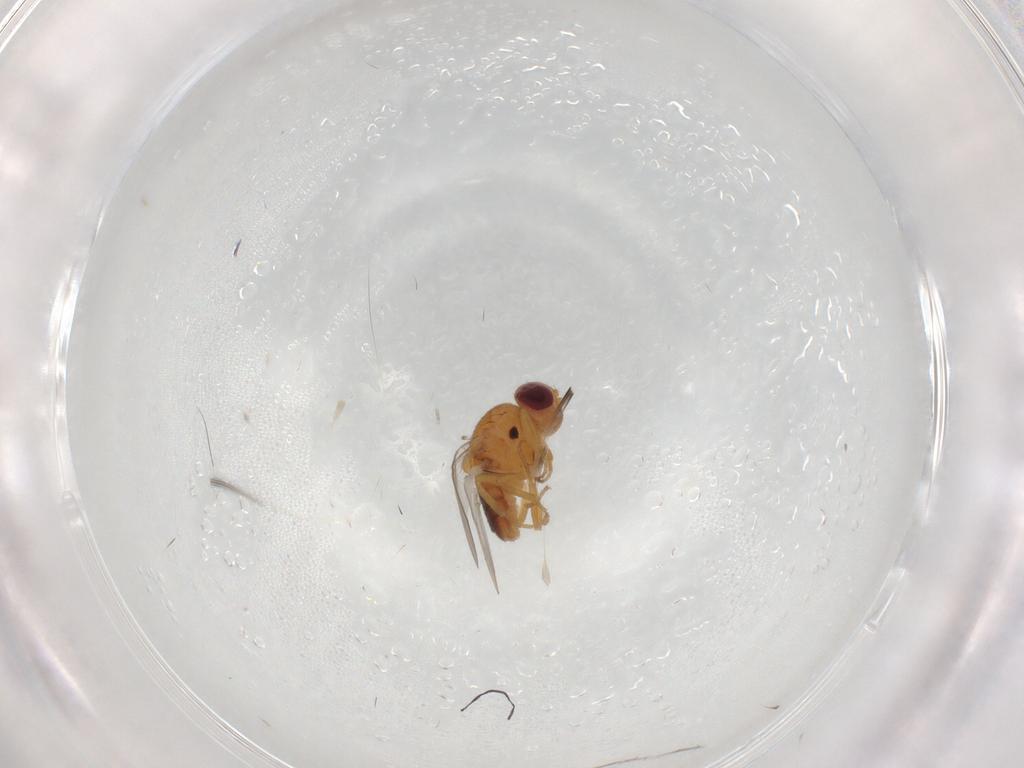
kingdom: Animalia
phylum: Arthropoda
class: Insecta
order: Diptera
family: Chloropidae
